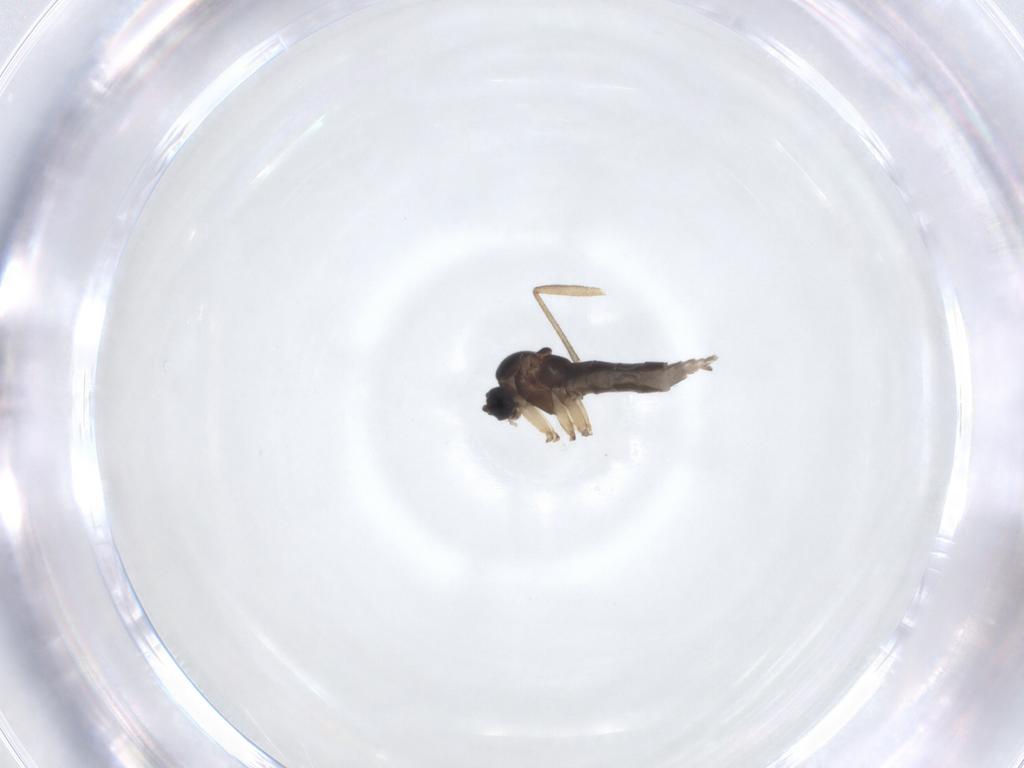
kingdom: Animalia
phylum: Arthropoda
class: Insecta
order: Diptera
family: Sciaridae
